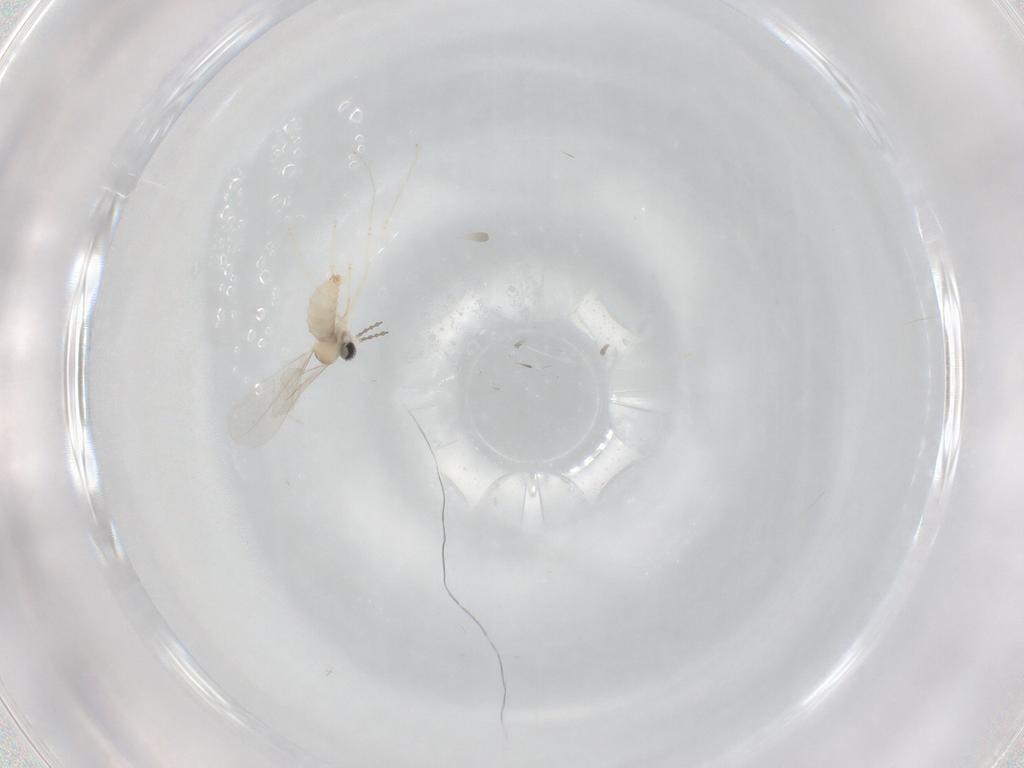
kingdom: Animalia
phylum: Arthropoda
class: Insecta
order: Diptera
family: Cecidomyiidae
